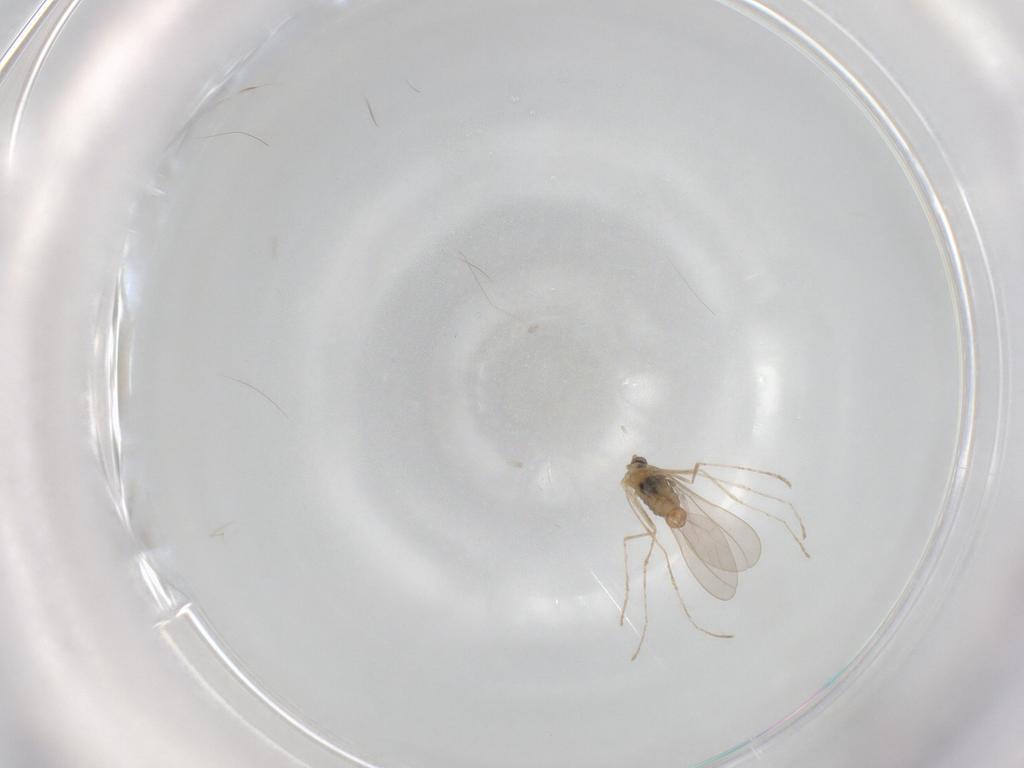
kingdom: Animalia
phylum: Arthropoda
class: Insecta
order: Diptera
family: Cecidomyiidae
